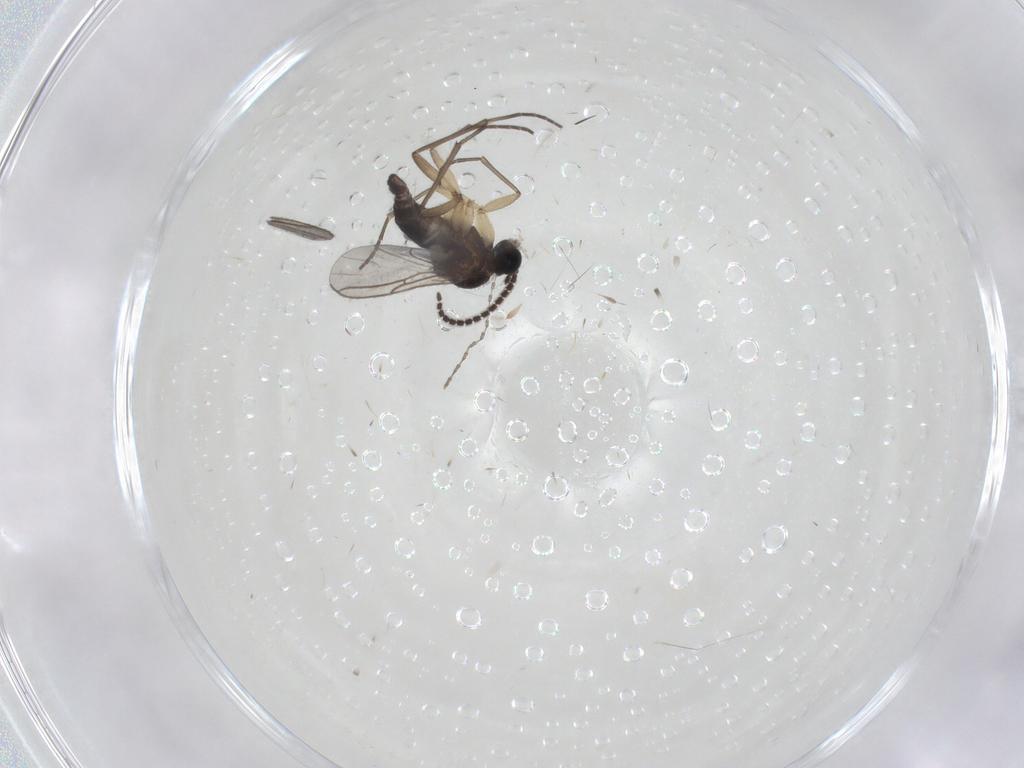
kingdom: Animalia
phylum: Arthropoda
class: Insecta
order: Diptera
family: Sciaridae
